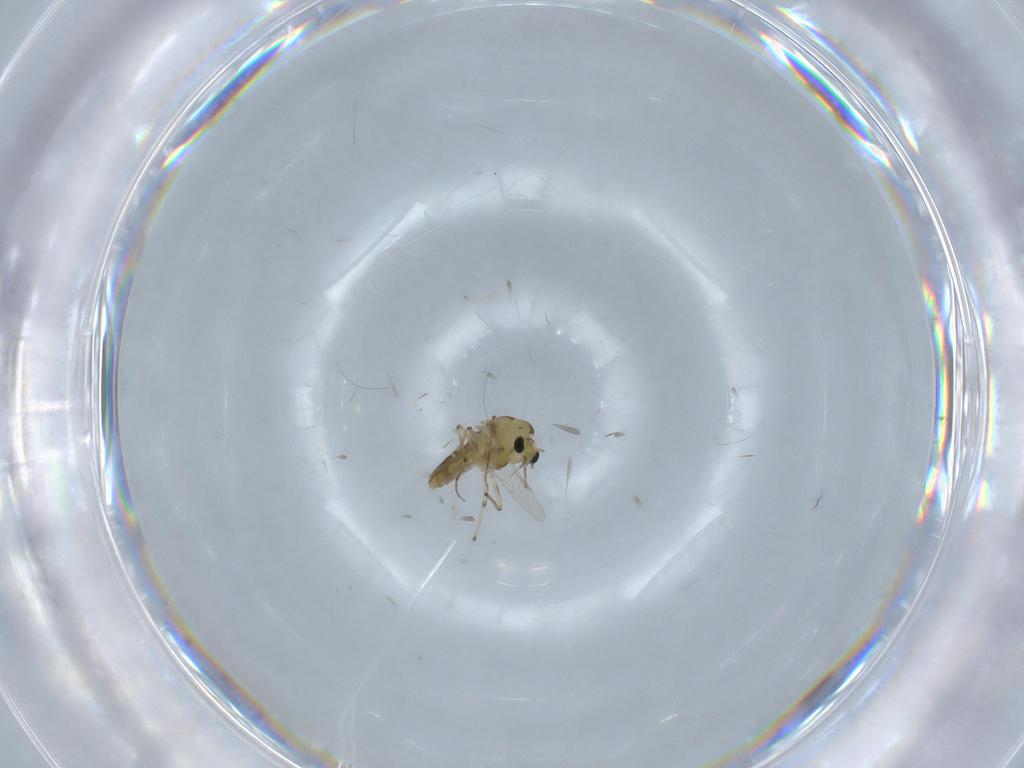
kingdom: Animalia
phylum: Arthropoda
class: Insecta
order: Diptera
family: Chironomidae
